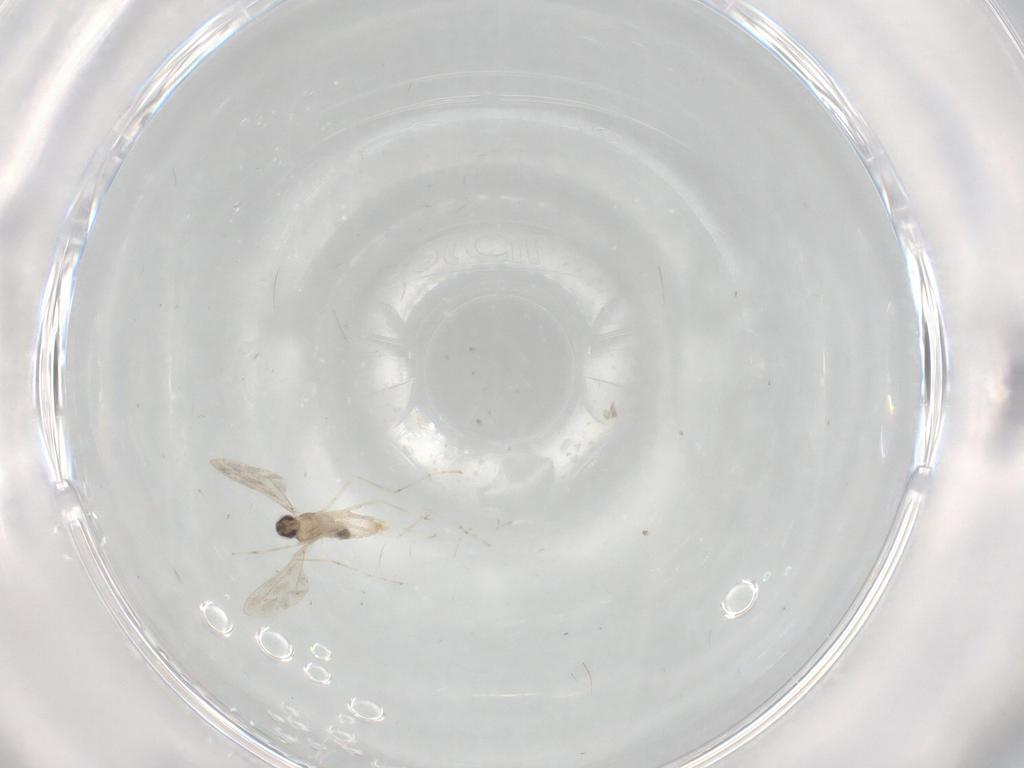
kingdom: Animalia
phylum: Arthropoda
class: Insecta
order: Diptera
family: Cecidomyiidae
